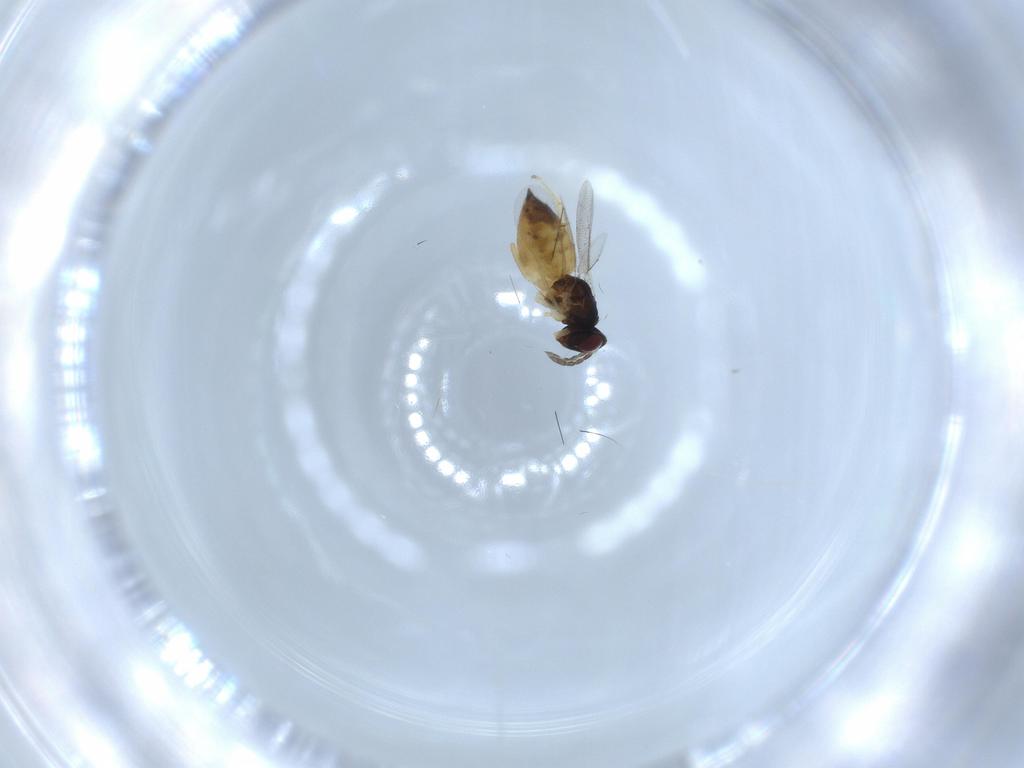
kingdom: Animalia
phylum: Arthropoda
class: Insecta
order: Hymenoptera
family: Eulophidae
